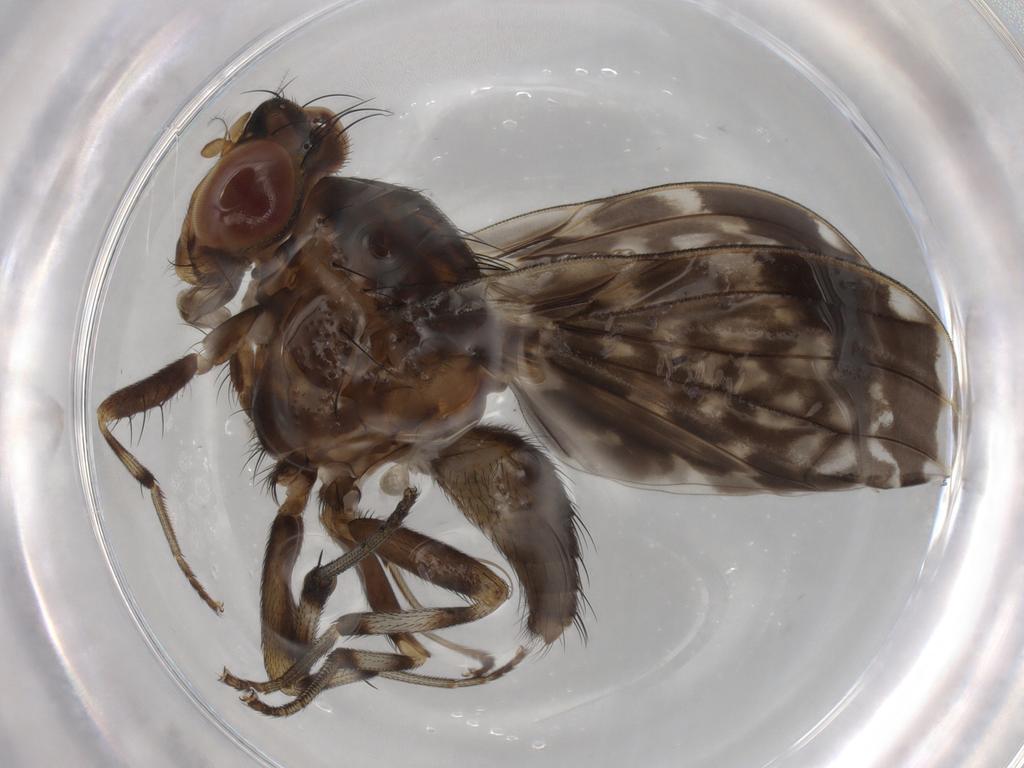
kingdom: Animalia
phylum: Arthropoda
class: Insecta
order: Diptera
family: Lauxaniidae
